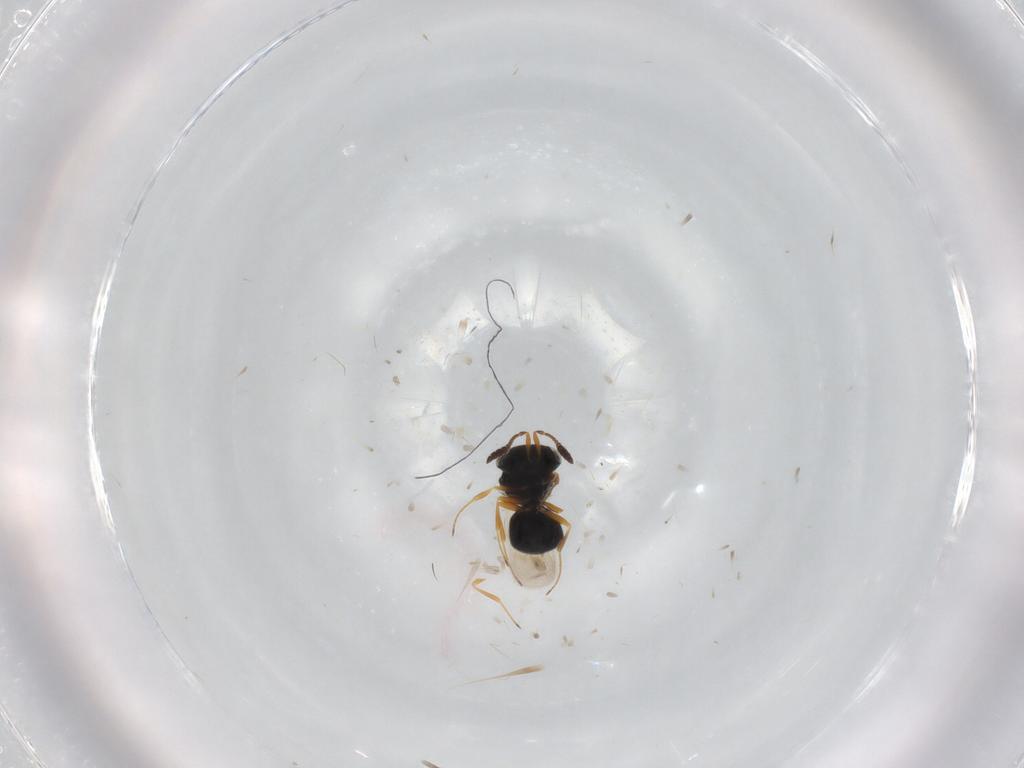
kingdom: Animalia
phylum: Arthropoda
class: Insecta
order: Hymenoptera
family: Scelionidae
